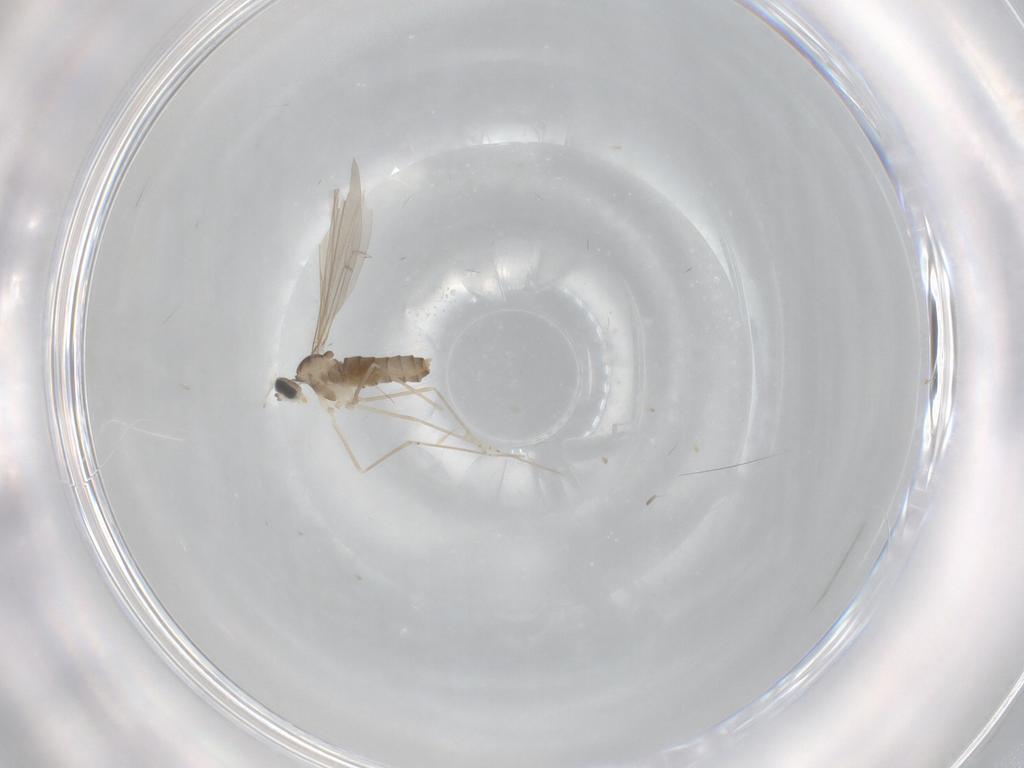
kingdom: Animalia
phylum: Arthropoda
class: Insecta
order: Diptera
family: Cecidomyiidae
